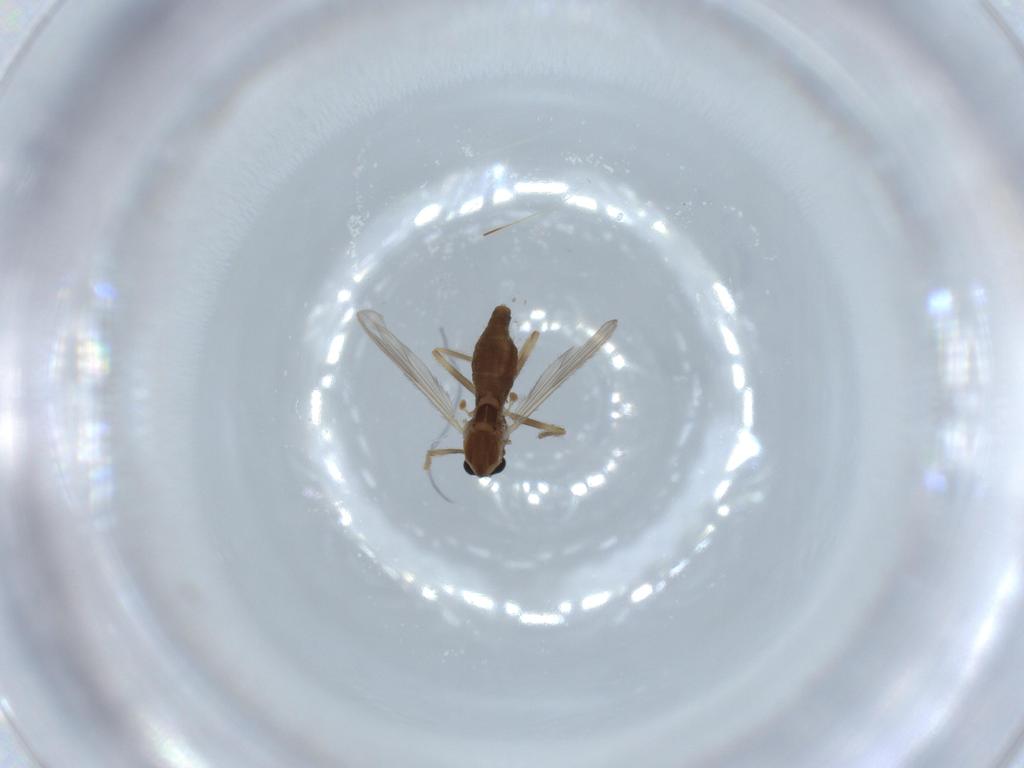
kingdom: Animalia
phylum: Arthropoda
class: Insecta
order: Diptera
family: Chironomidae
